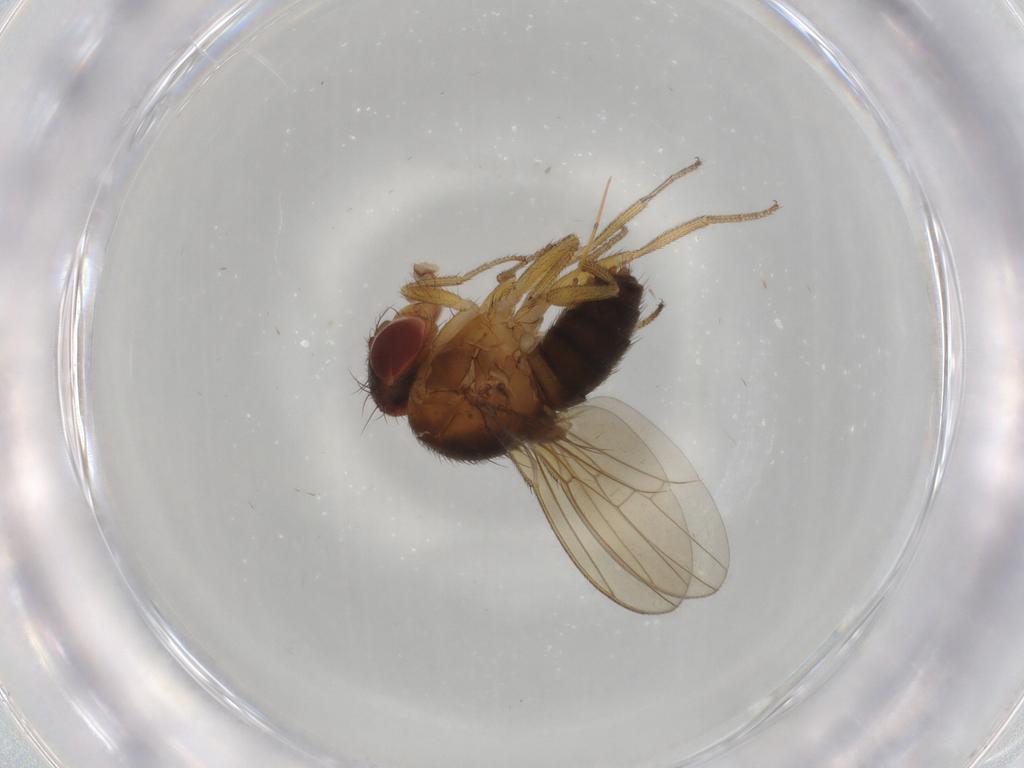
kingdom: Animalia
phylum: Arthropoda
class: Insecta
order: Diptera
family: Drosophilidae
